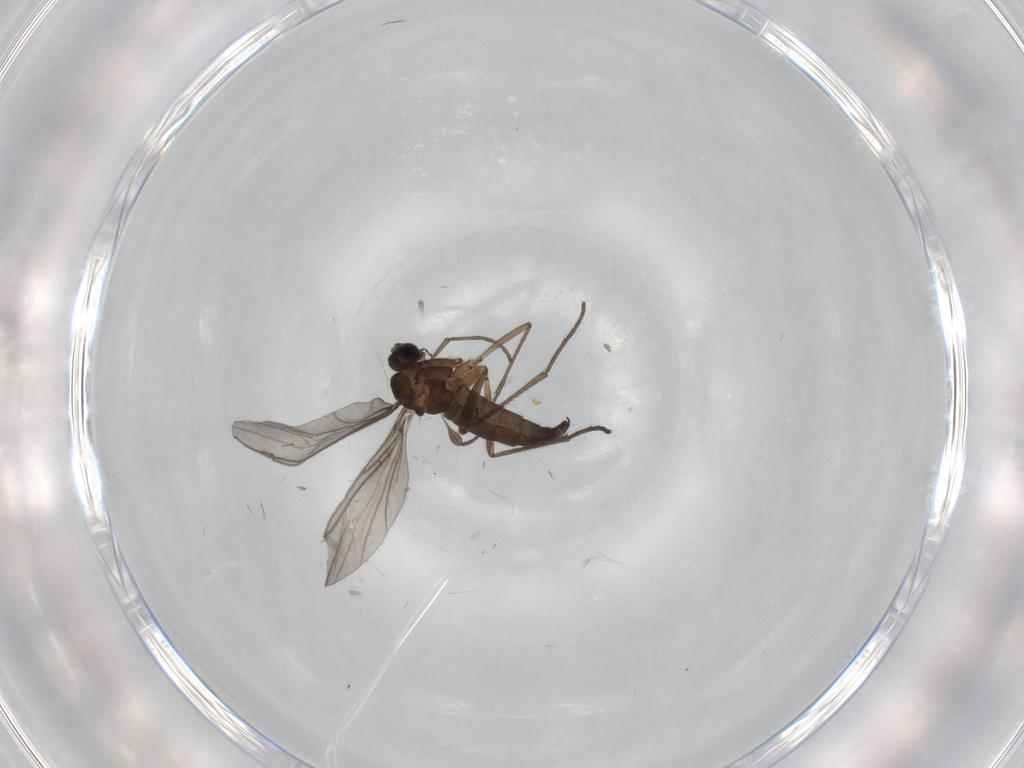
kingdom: Animalia
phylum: Arthropoda
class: Insecta
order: Diptera
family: Sciaridae
